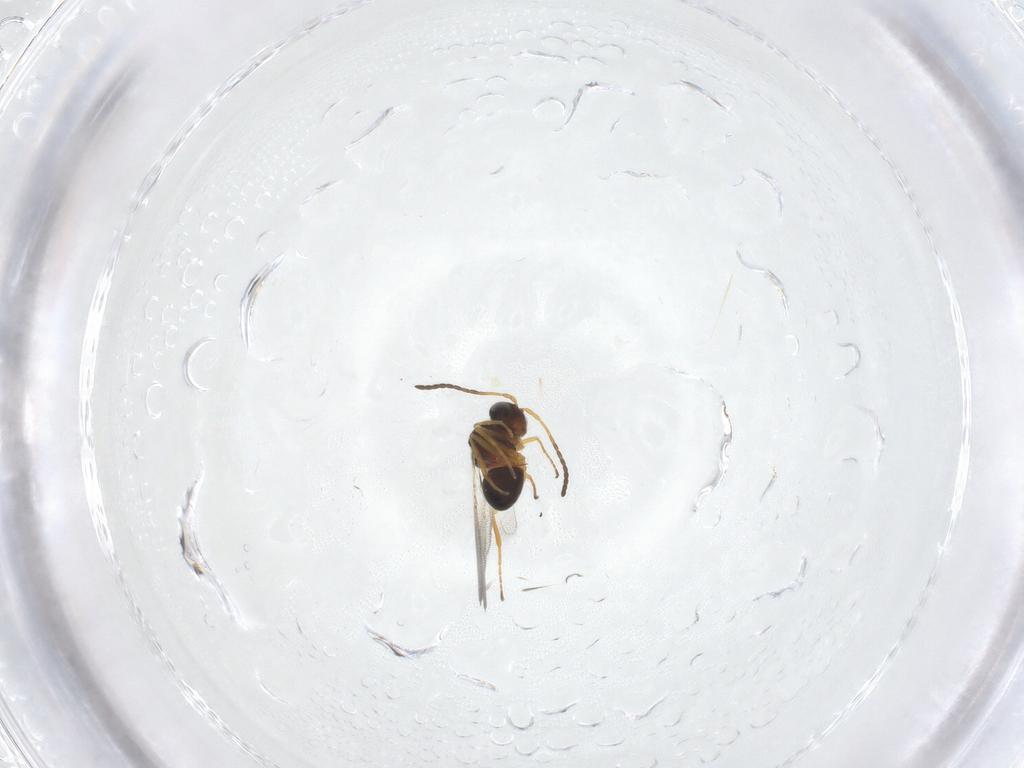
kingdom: Animalia
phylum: Arthropoda
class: Insecta
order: Hymenoptera
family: Figitidae
